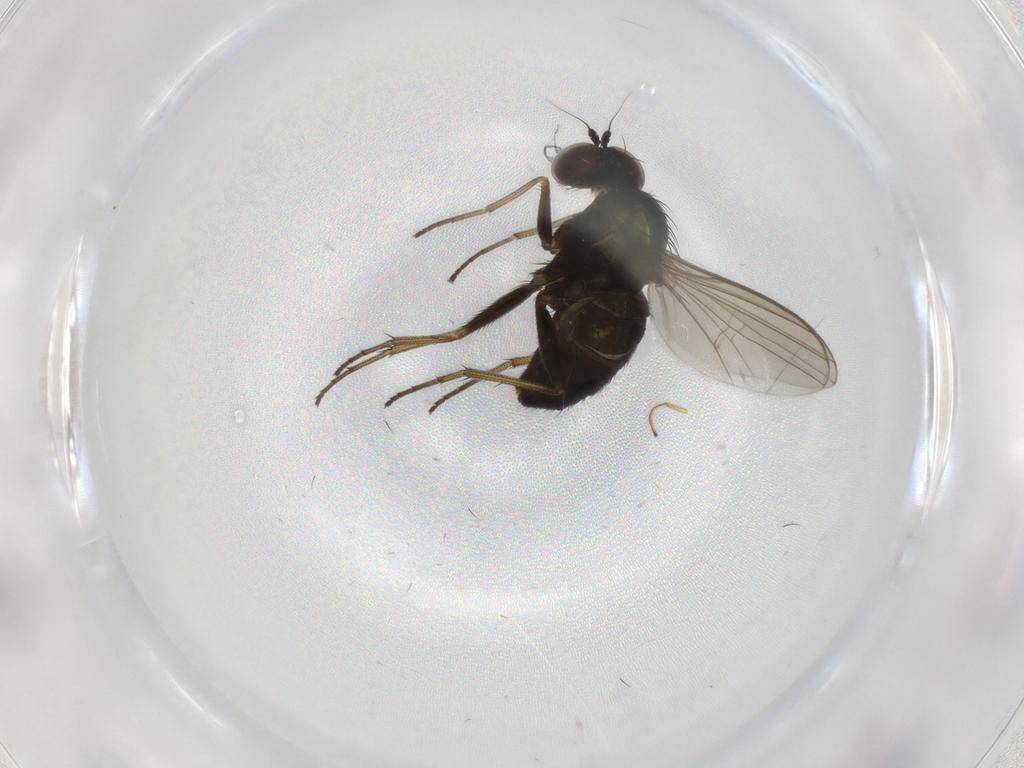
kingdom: Animalia
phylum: Arthropoda
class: Insecta
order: Diptera
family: Dolichopodidae
